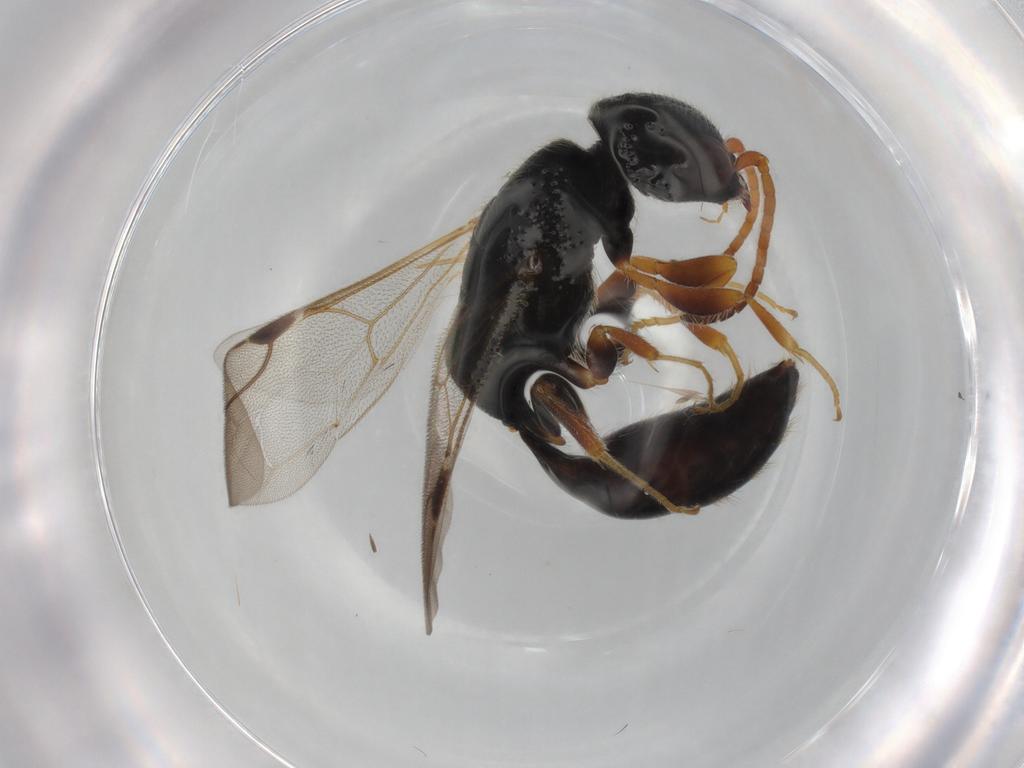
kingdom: Animalia
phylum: Arthropoda
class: Insecta
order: Hymenoptera
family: Bethylidae
